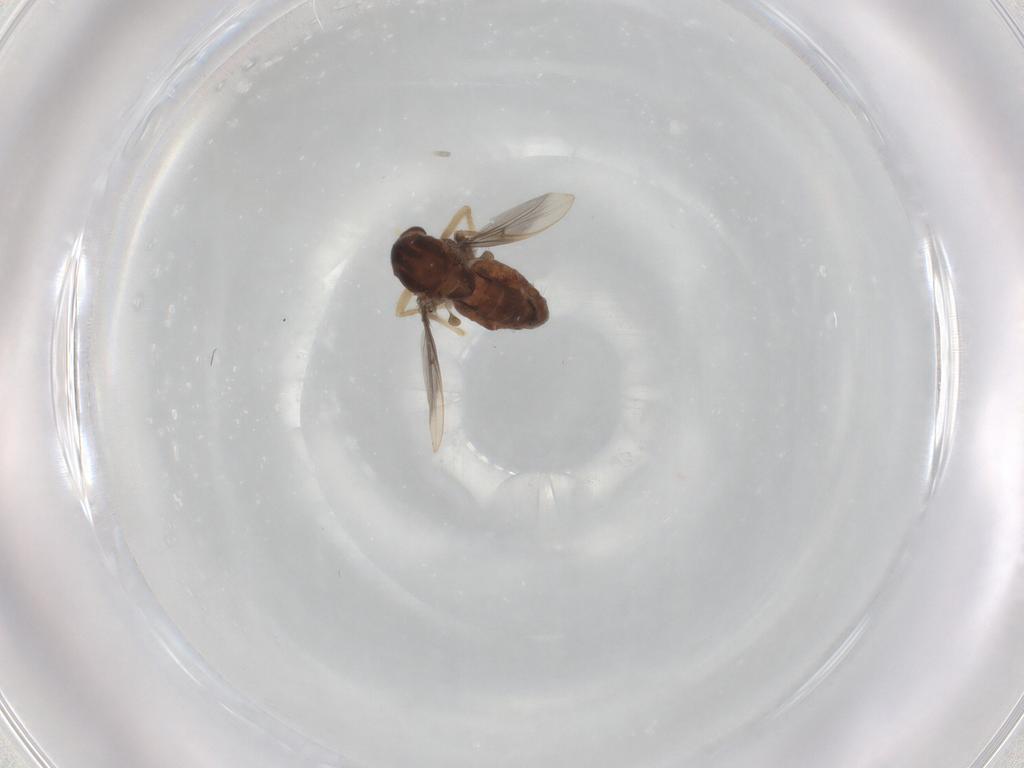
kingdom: Animalia
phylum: Arthropoda
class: Insecta
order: Diptera
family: Chironomidae
